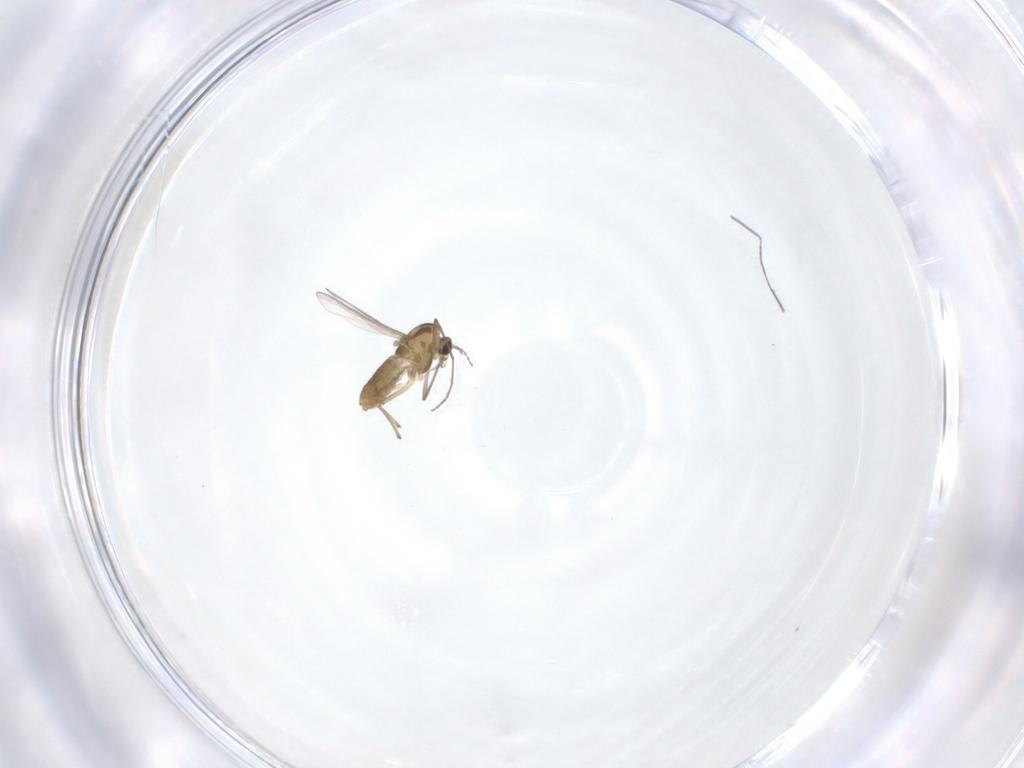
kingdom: Animalia
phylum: Arthropoda
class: Insecta
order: Diptera
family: Chironomidae
